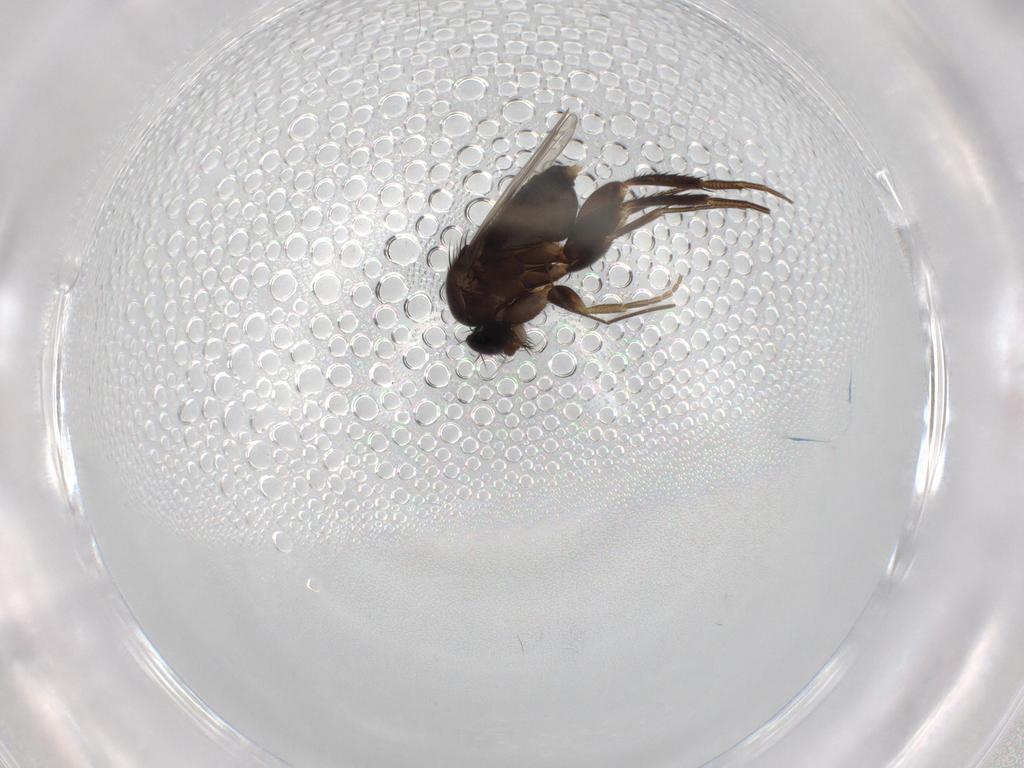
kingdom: Animalia
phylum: Arthropoda
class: Insecta
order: Diptera
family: Phoridae
